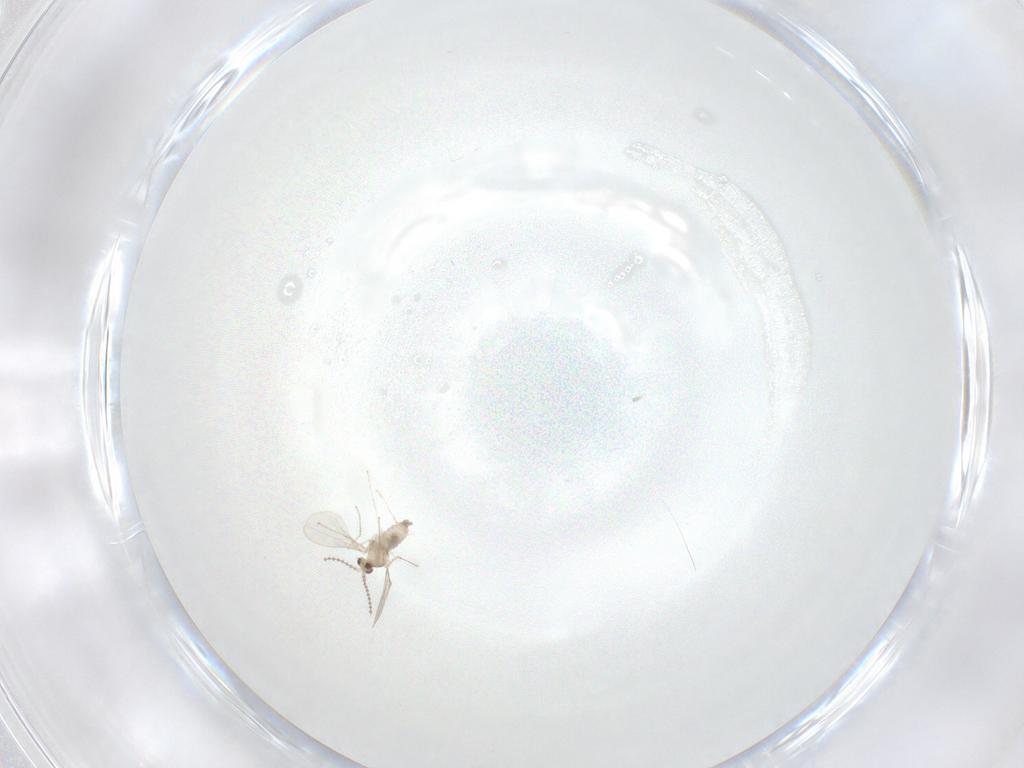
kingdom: Animalia
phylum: Arthropoda
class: Insecta
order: Diptera
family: Cecidomyiidae
